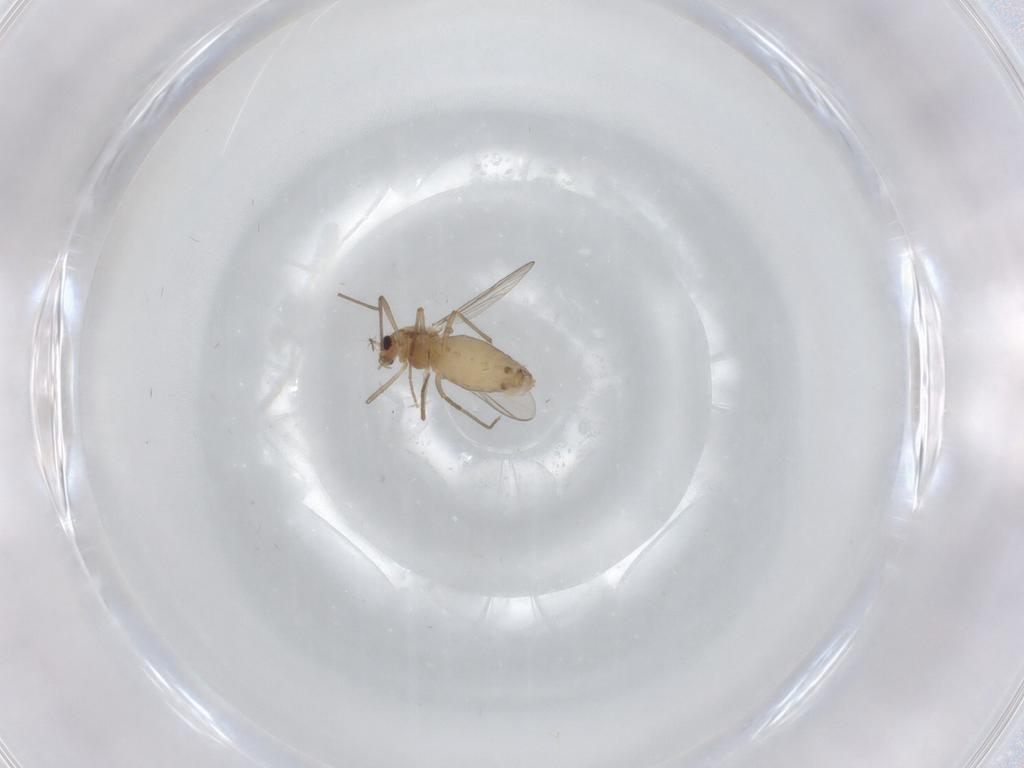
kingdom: Animalia
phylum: Arthropoda
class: Insecta
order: Diptera
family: Chironomidae
